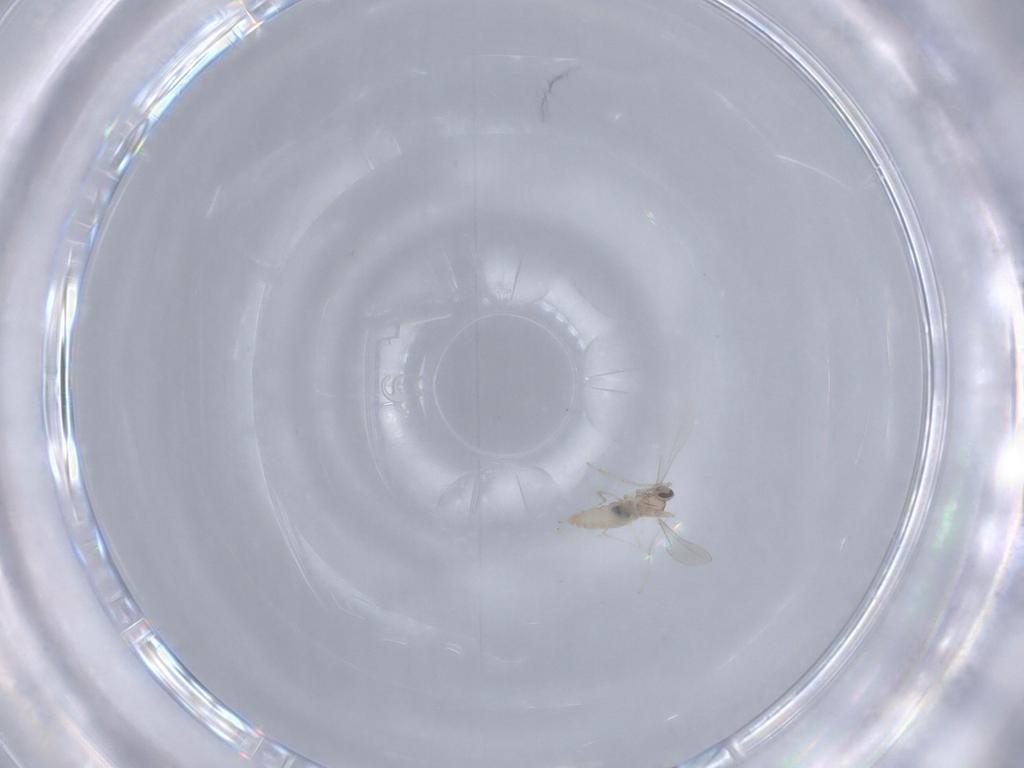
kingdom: Animalia
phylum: Arthropoda
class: Insecta
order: Diptera
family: Cecidomyiidae
